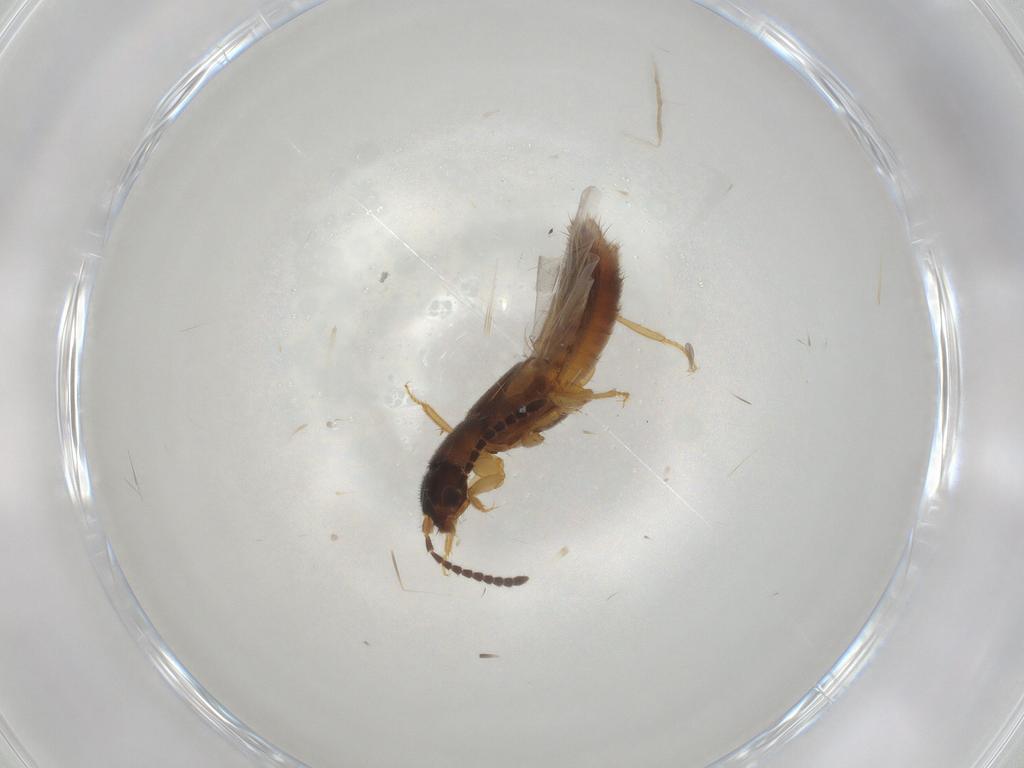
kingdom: Animalia
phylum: Arthropoda
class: Insecta
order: Coleoptera
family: Staphylinidae
